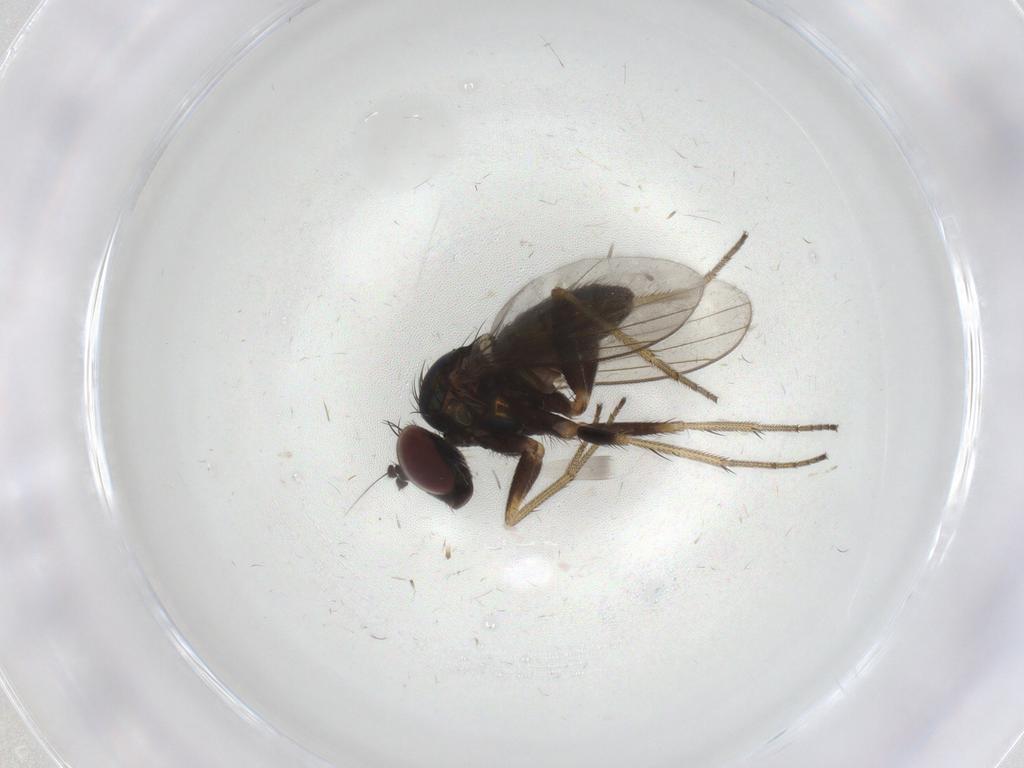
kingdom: Animalia
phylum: Arthropoda
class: Insecta
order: Diptera
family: Dolichopodidae
